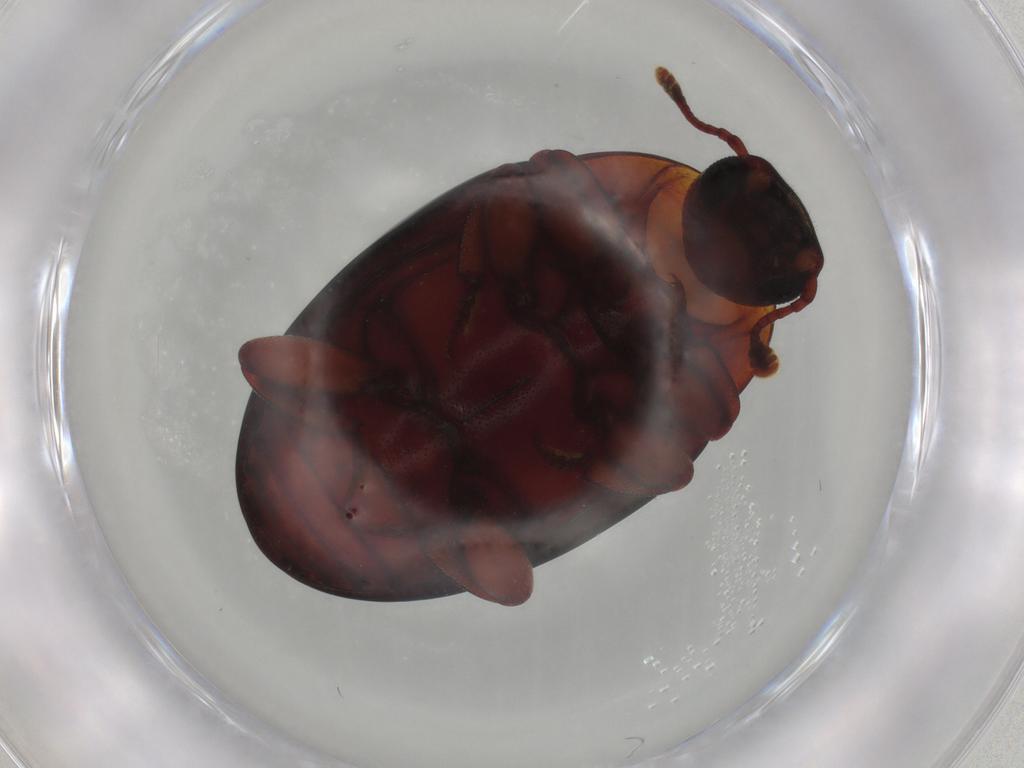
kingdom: Animalia
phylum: Arthropoda
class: Insecta
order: Coleoptera
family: Zopheridae
